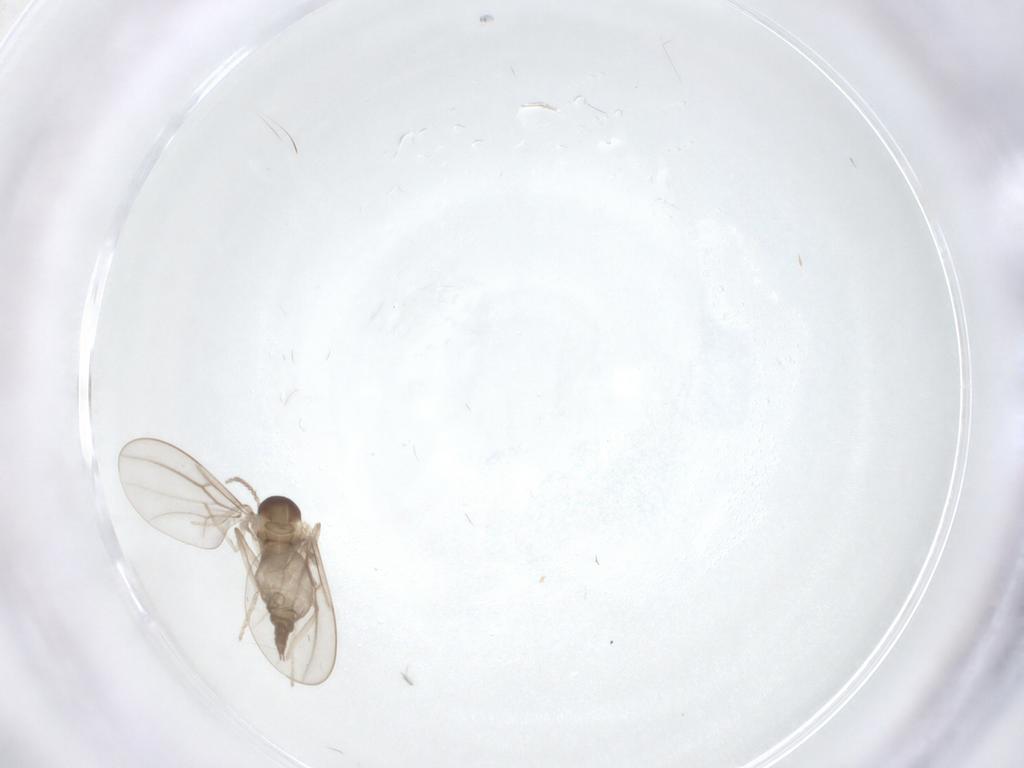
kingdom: Animalia
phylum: Arthropoda
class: Insecta
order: Diptera
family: Cecidomyiidae
